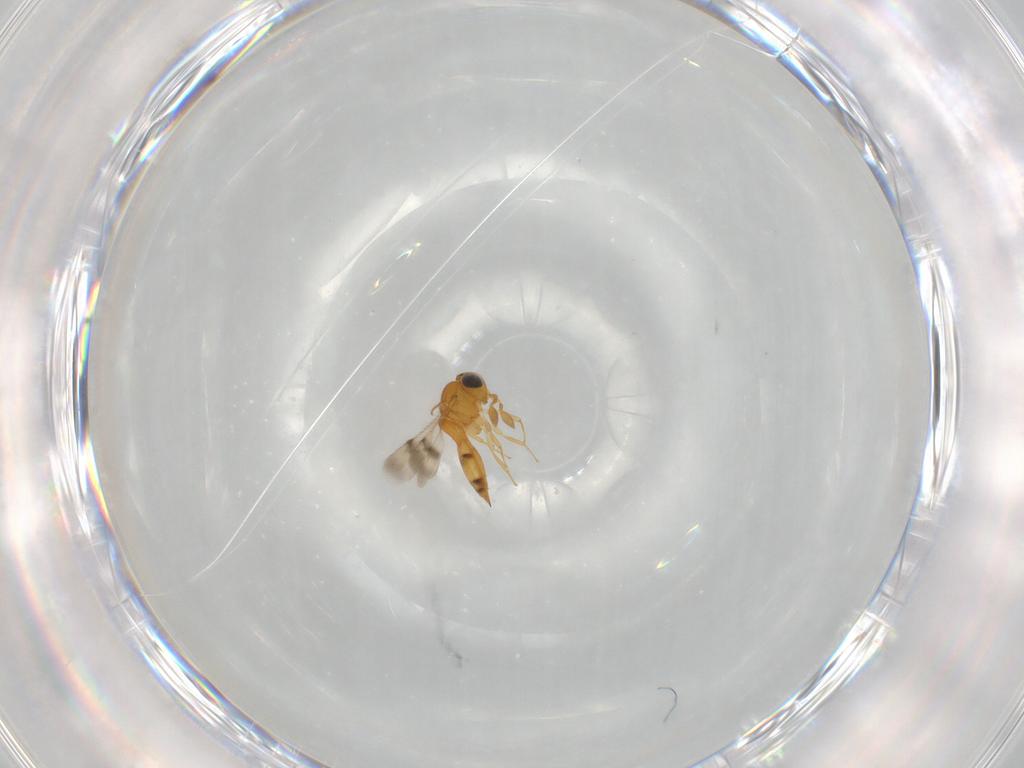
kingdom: Animalia
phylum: Arthropoda
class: Insecta
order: Hymenoptera
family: Scelionidae
